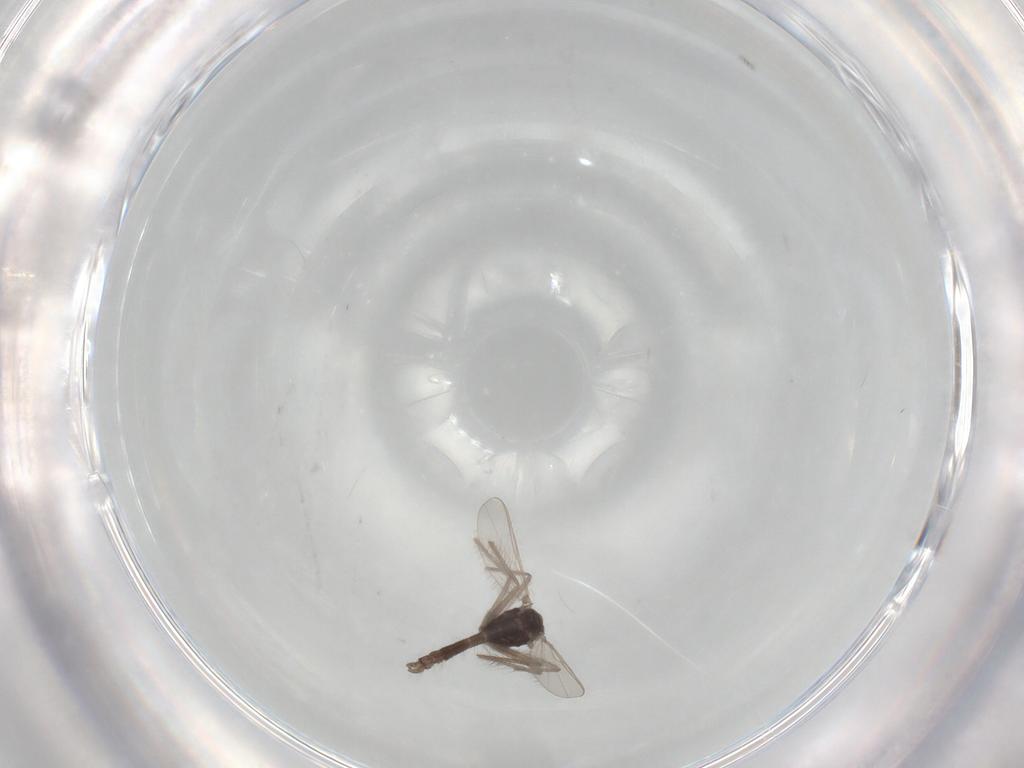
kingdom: Animalia
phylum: Arthropoda
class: Insecta
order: Diptera
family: Chironomidae
